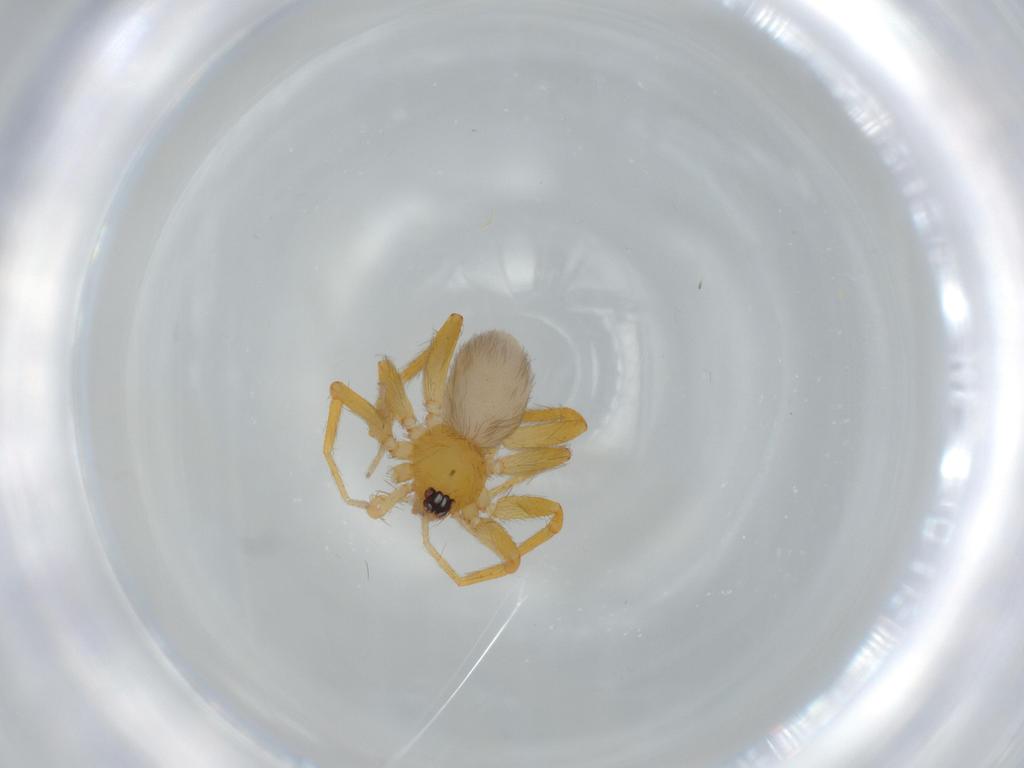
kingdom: Animalia
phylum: Arthropoda
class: Arachnida
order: Araneae
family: Oonopidae
